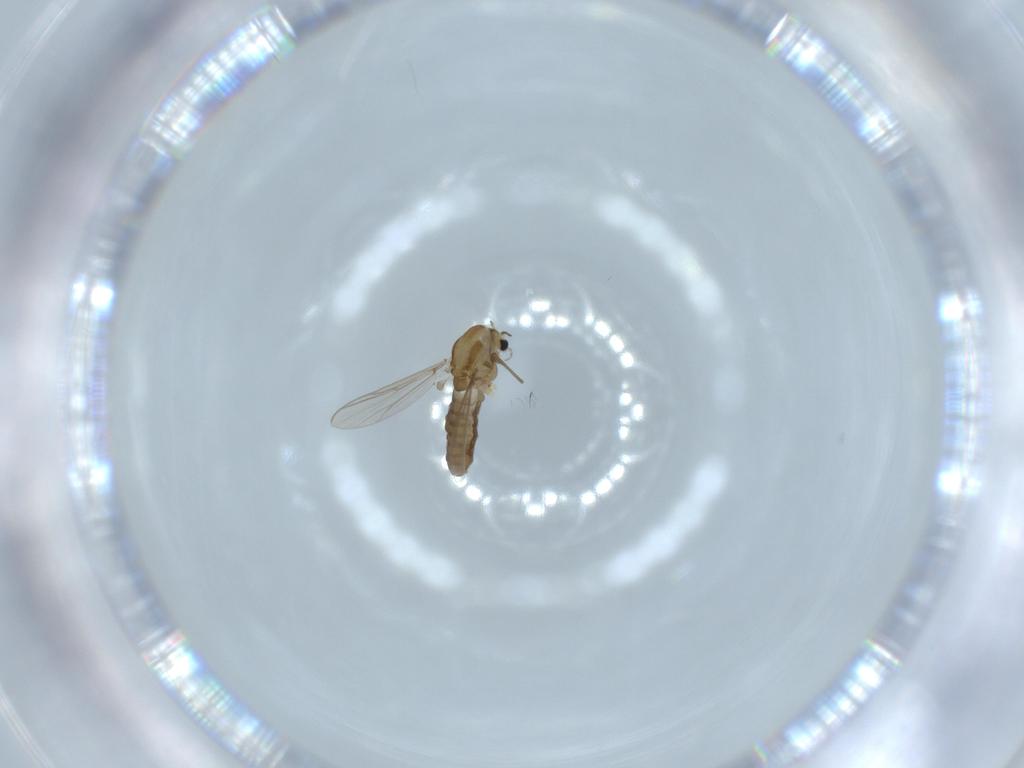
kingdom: Animalia
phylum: Arthropoda
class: Insecta
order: Diptera
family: Chironomidae
